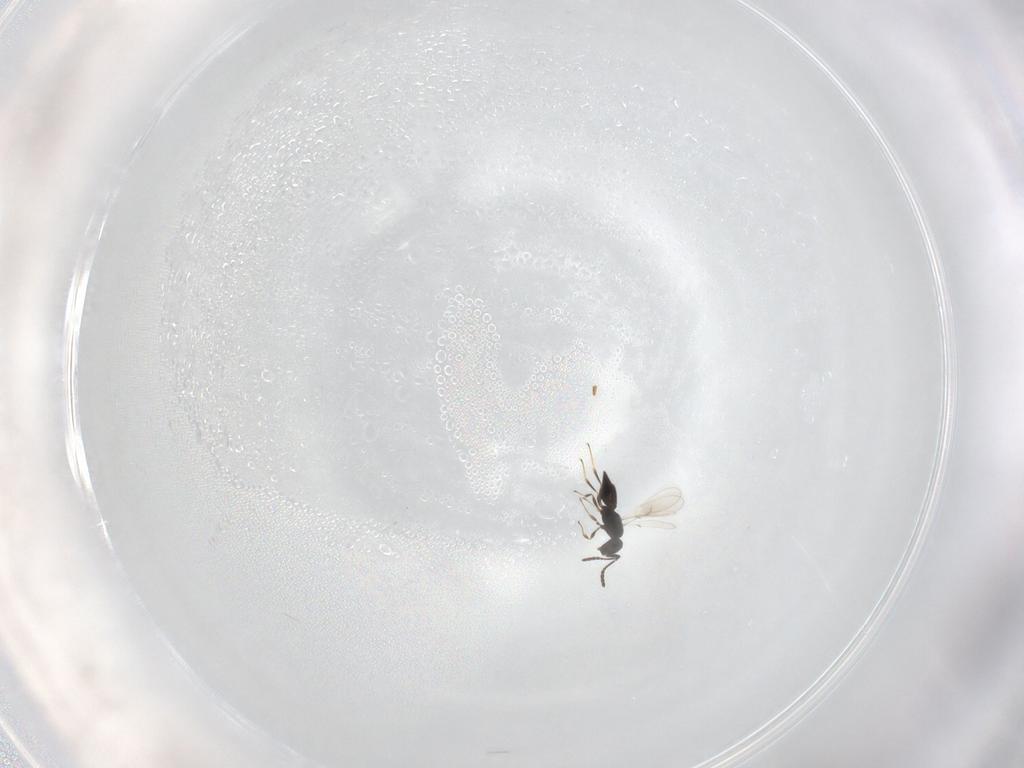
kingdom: Animalia
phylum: Arthropoda
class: Insecta
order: Hymenoptera
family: Scelionidae
